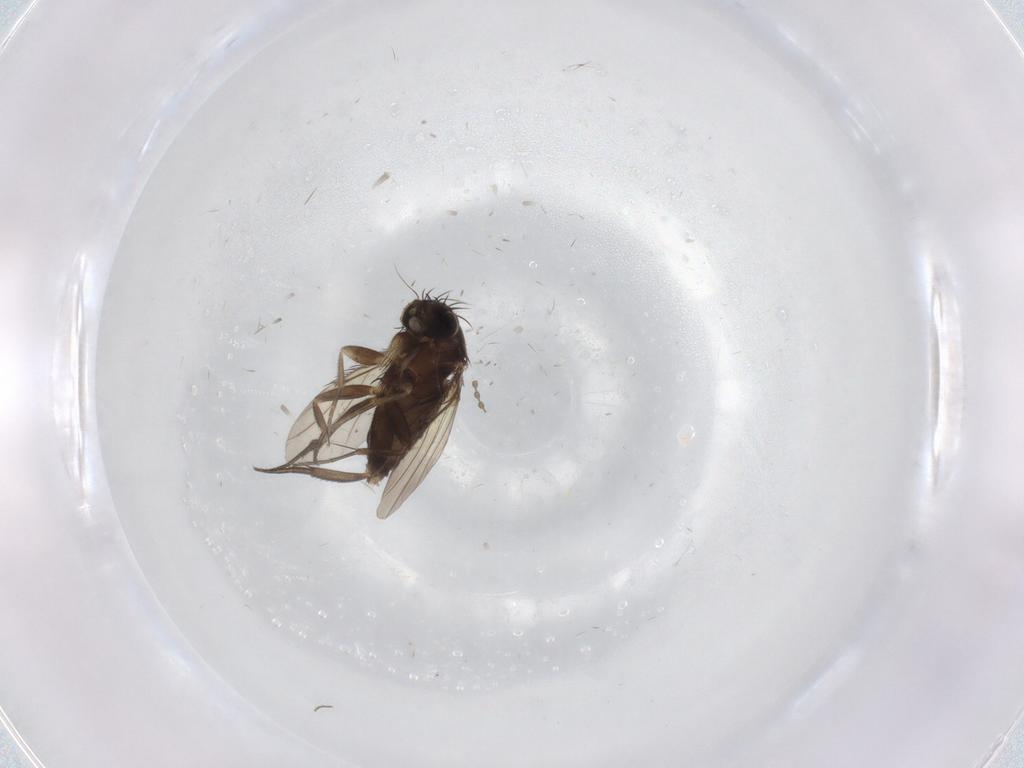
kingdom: Animalia
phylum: Arthropoda
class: Insecta
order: Diptera
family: Phoridae
